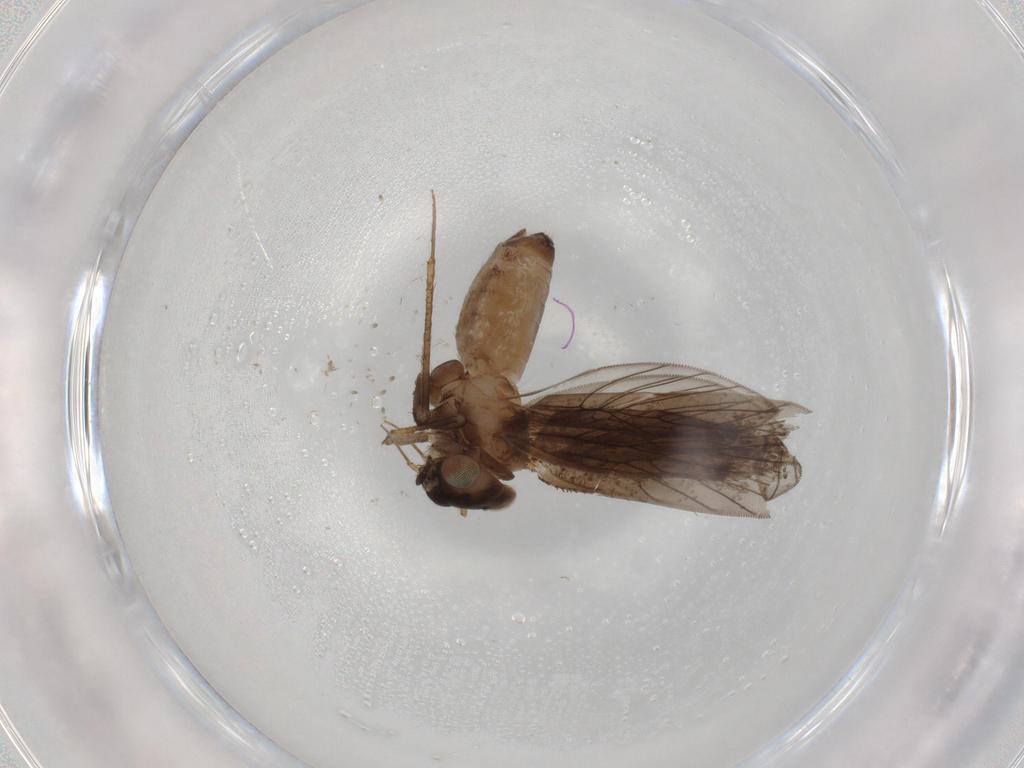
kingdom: Animalia
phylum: Arthropoda
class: Insecta
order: Psocodea
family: Lepidopsocidae
